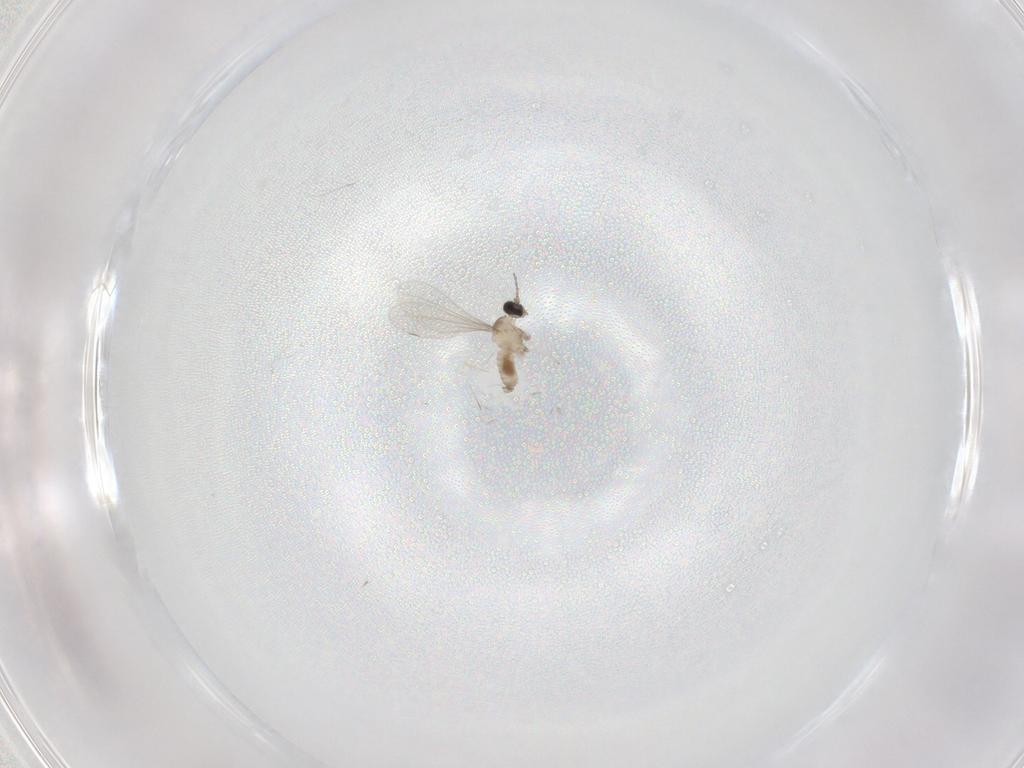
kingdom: Animalia
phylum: Arthropoda
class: Insecta
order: Diptera
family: Cecidomyiidae
